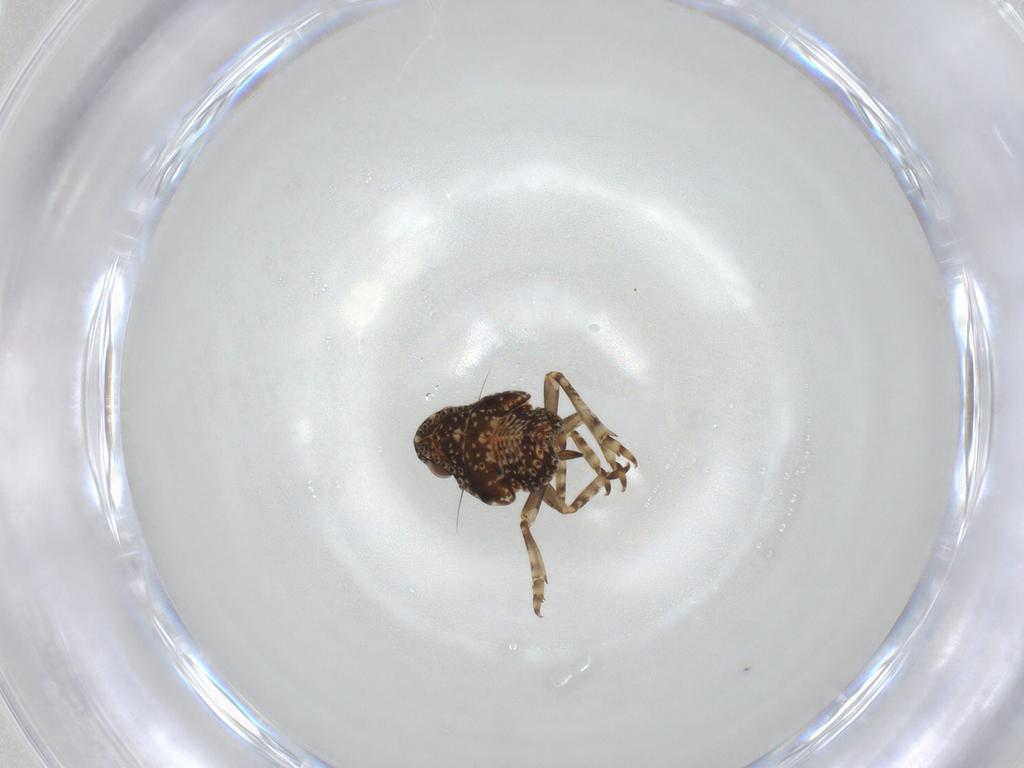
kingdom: Animalia
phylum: Arthropoda
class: Insecta
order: Hemiptera
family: Nogodinidae
